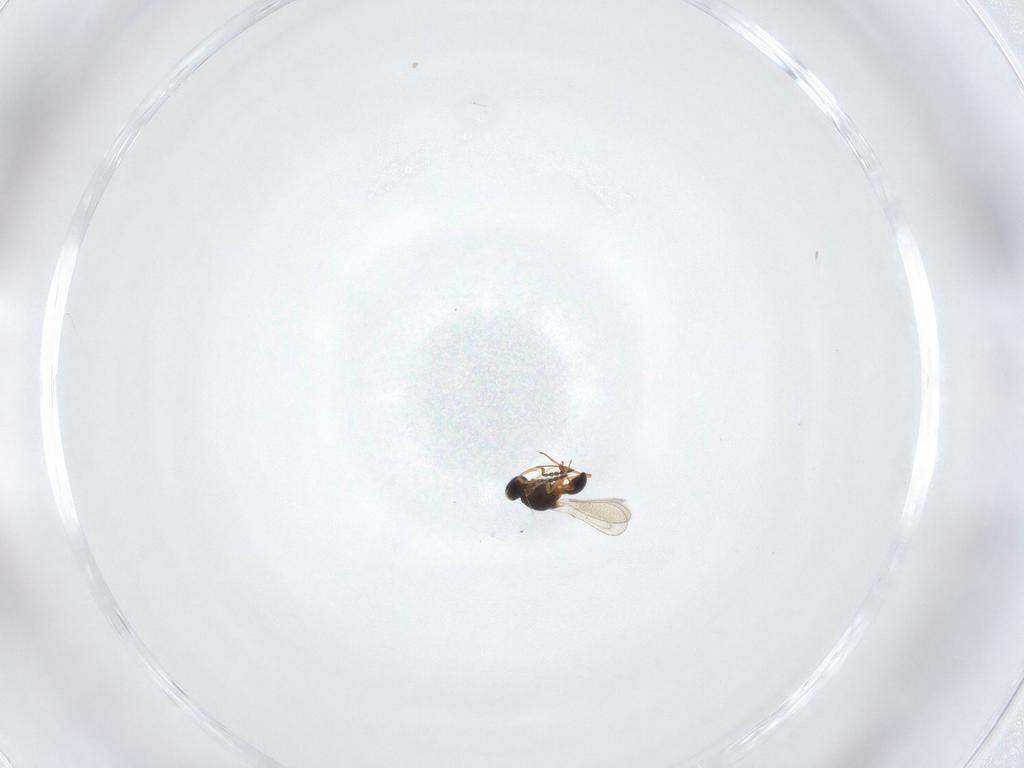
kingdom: Animalia
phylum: Arthropoda
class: Insecta
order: Hymenoptera
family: Platygastridae
